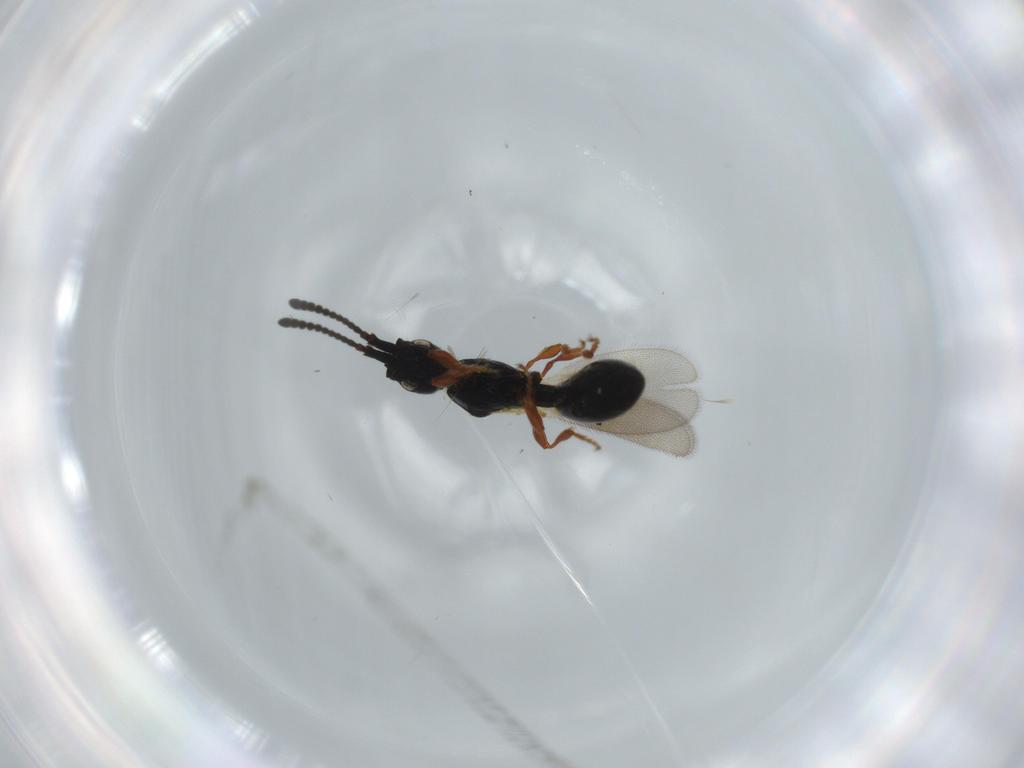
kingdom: Animalia
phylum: Arthropoda
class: Insecta
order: Hymenoptera
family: Diapriidae
